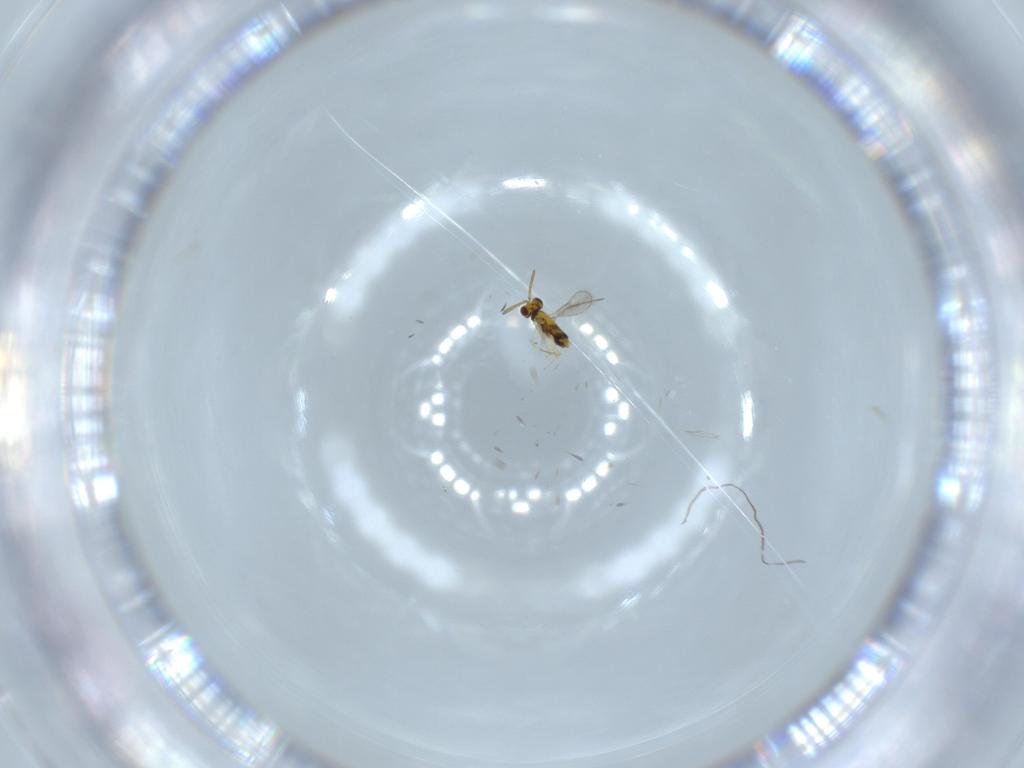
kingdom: Animalia
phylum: Arthropoda
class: Insecta
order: Hymenoptera
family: Aphelinidae
